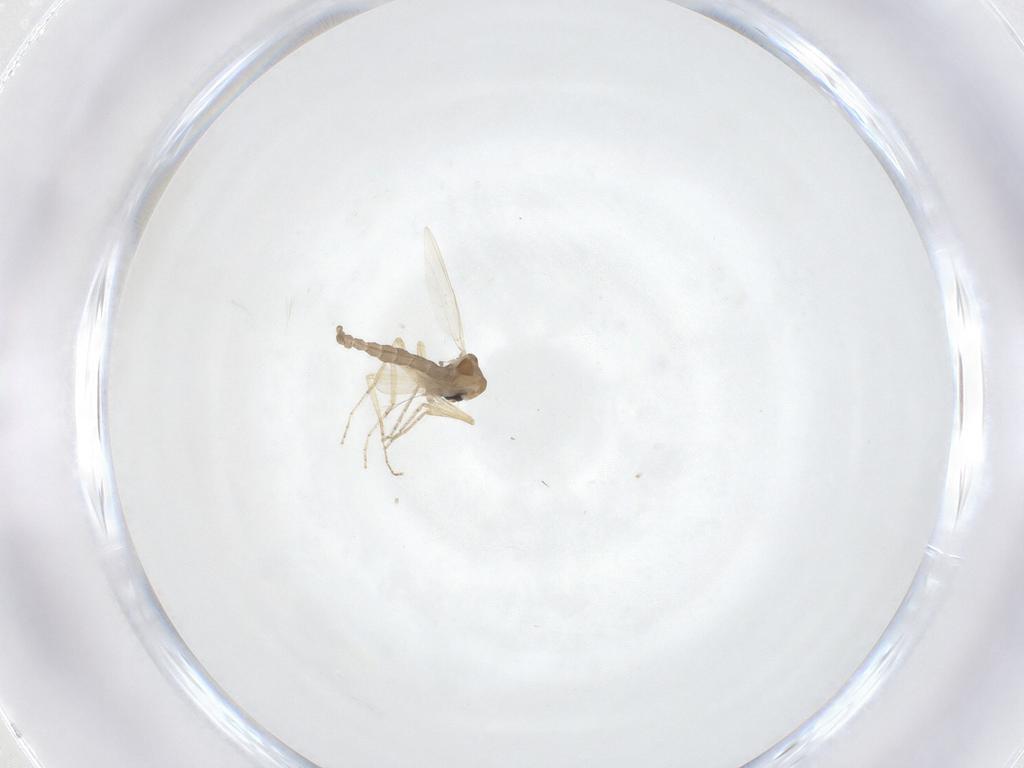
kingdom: Animalia
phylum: Arthropoda
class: Insecta
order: Diptera
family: Ceratopogonidae
